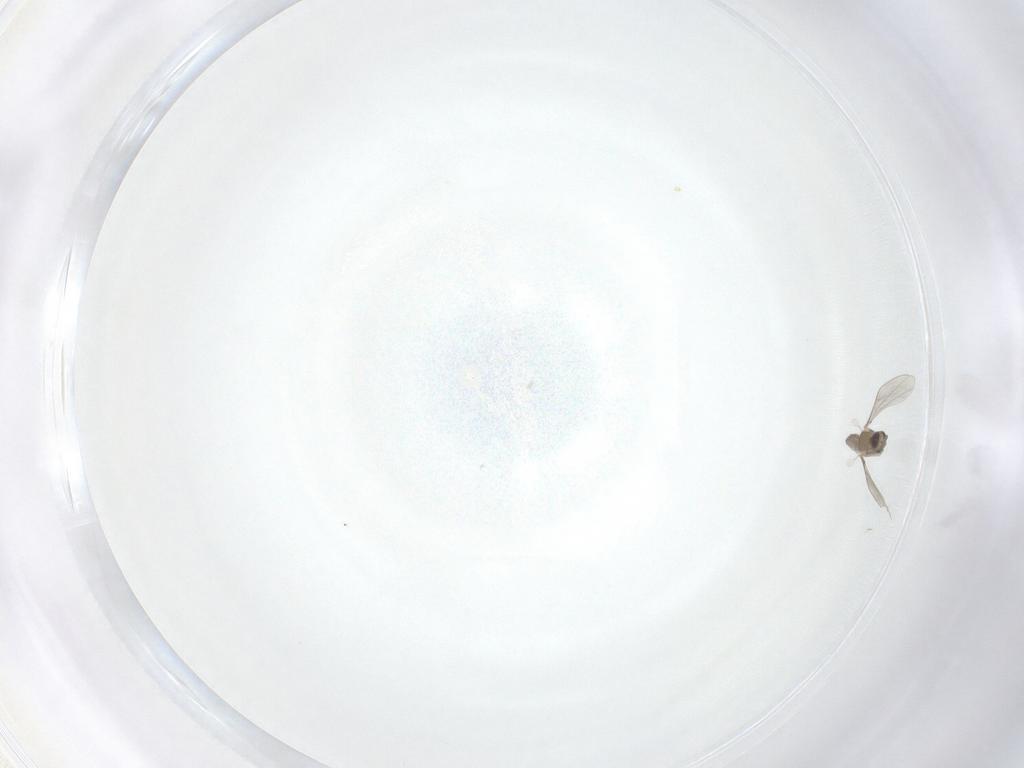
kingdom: Animalia
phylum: Arthropoda
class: Insecta
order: Diptera
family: Cecidomyiidae
